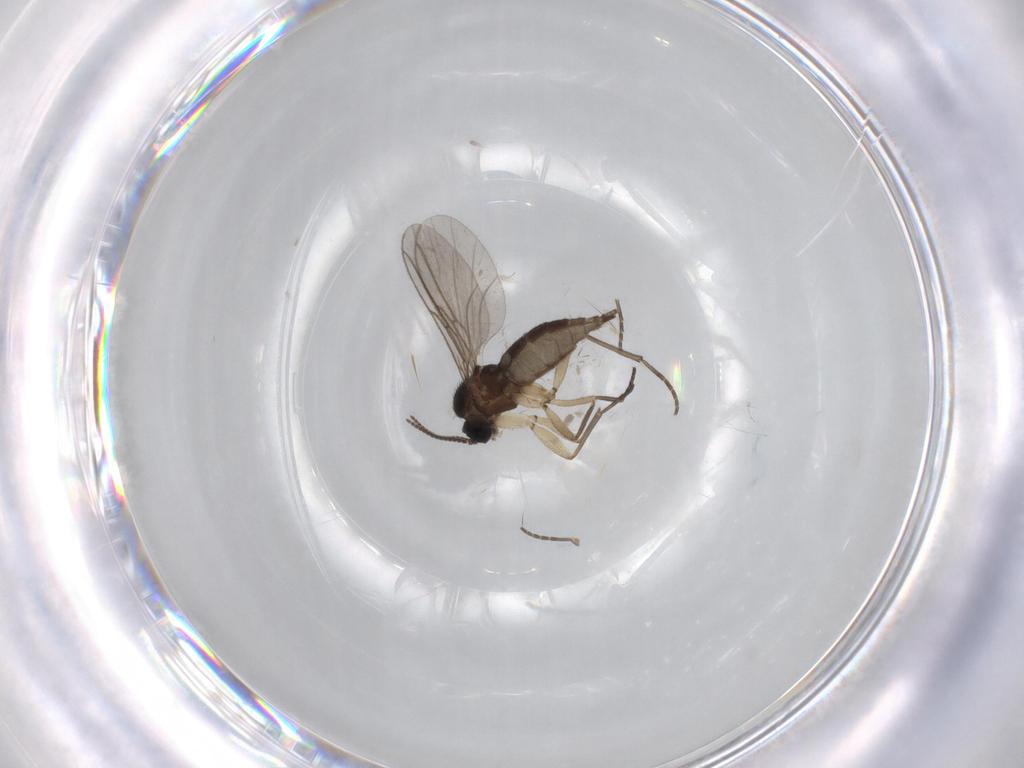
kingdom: Animalia
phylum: Arthropoda
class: Insecta
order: Diptera
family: Sciaridae
